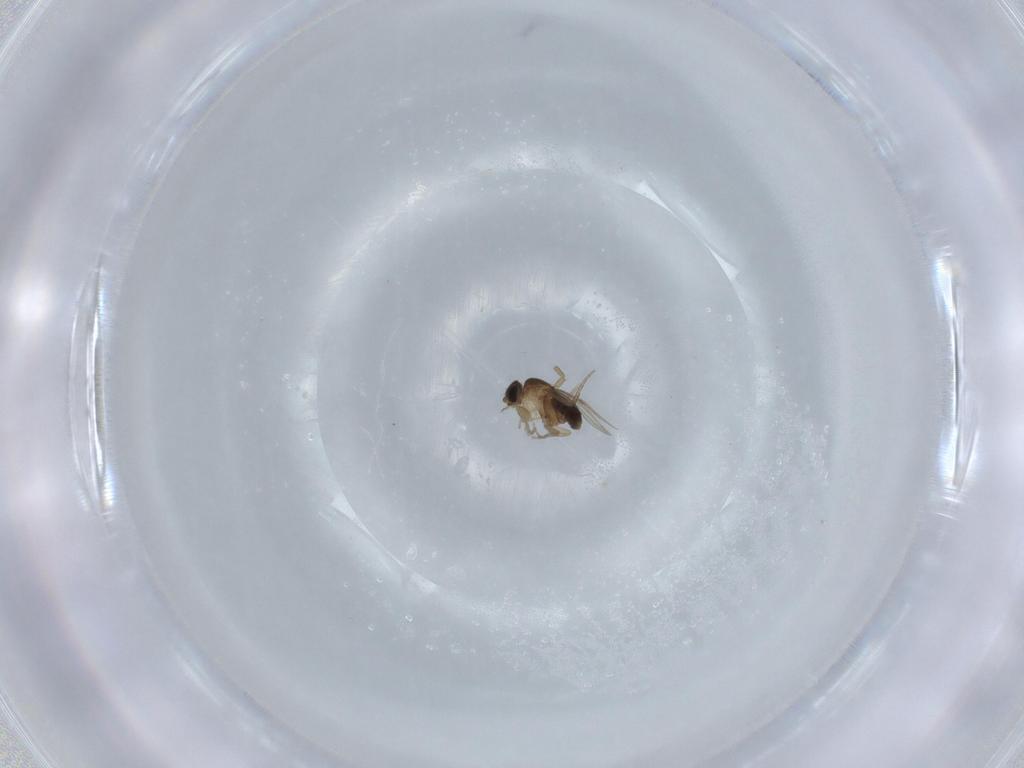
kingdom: Animalia
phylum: Arthropoda
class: Insecta
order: Diptera
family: Phoridae
